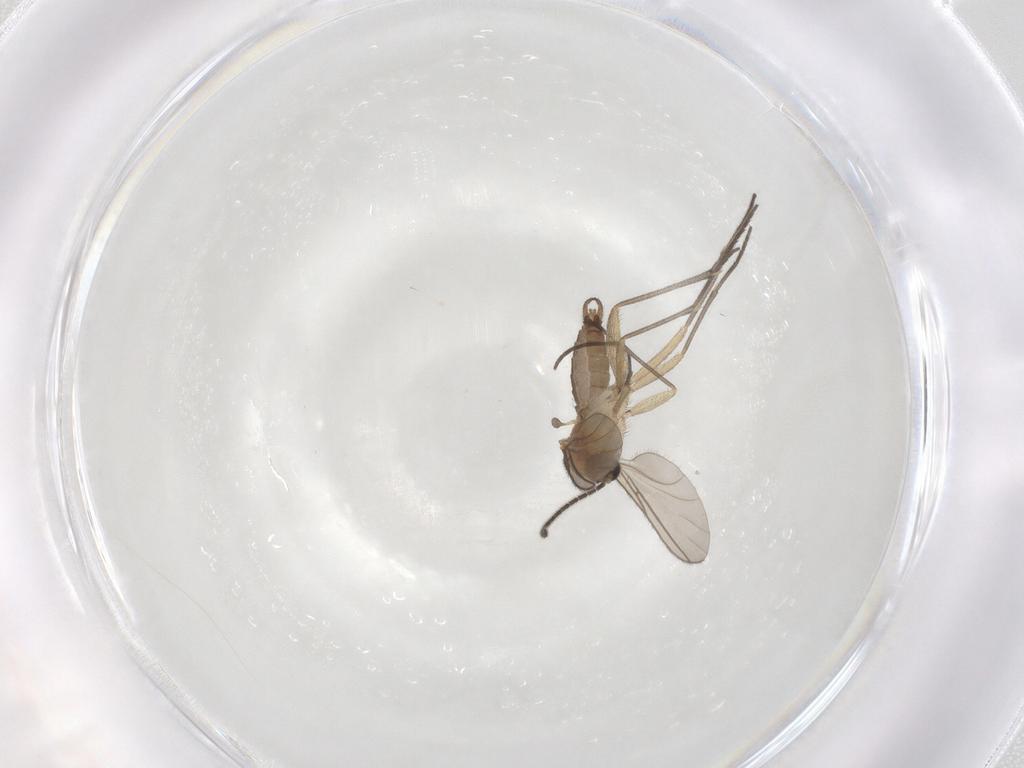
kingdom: Animalia
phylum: Arthropoda
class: Insecta
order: Diptera
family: Sciaridae
